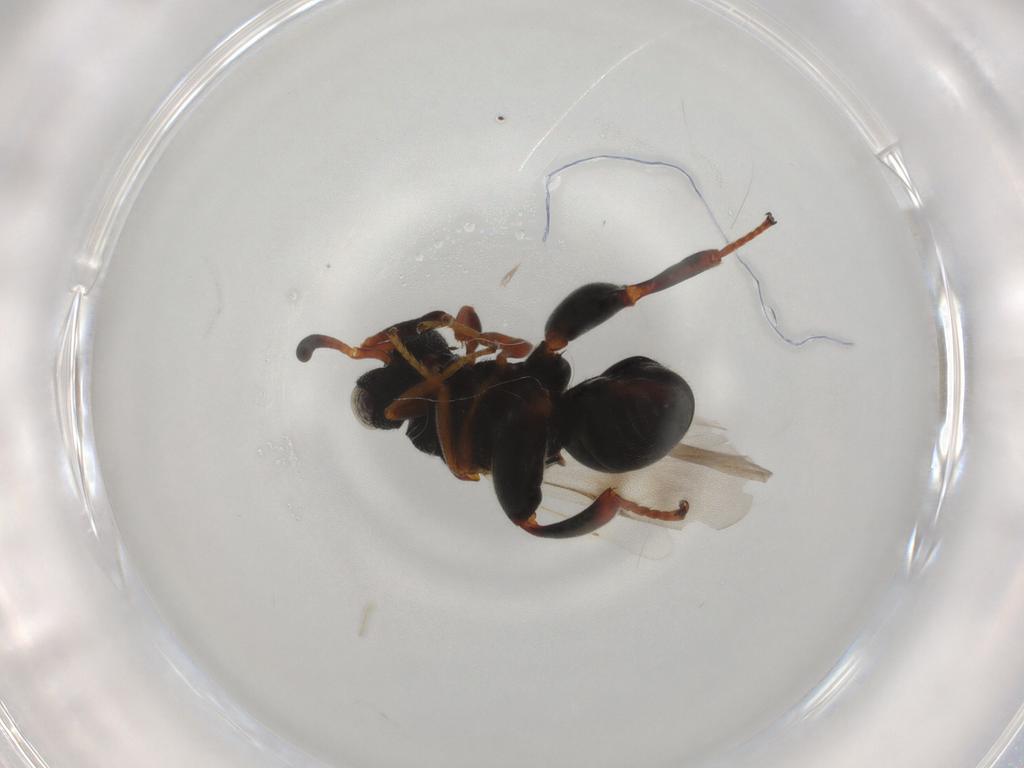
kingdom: Animalia
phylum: Arthropoda
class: Insecta
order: Hymenoptera
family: Chalcididae
